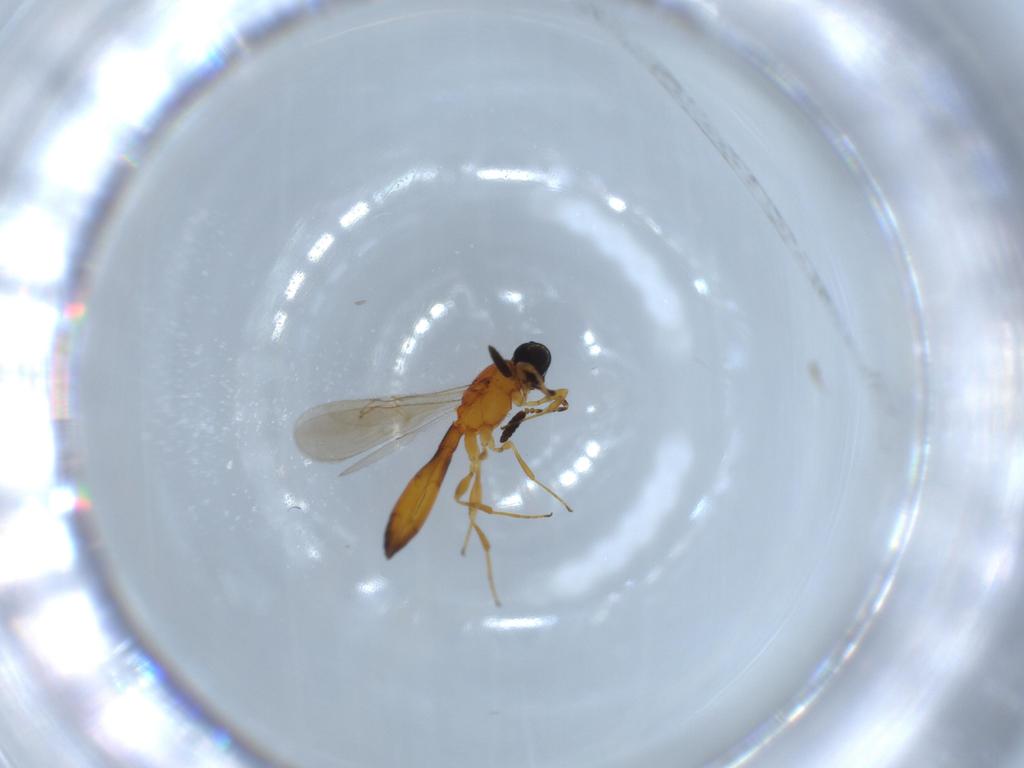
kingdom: Animalia
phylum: Arthropoda
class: Insecta
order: Hymenoptera
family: Scelionidae
